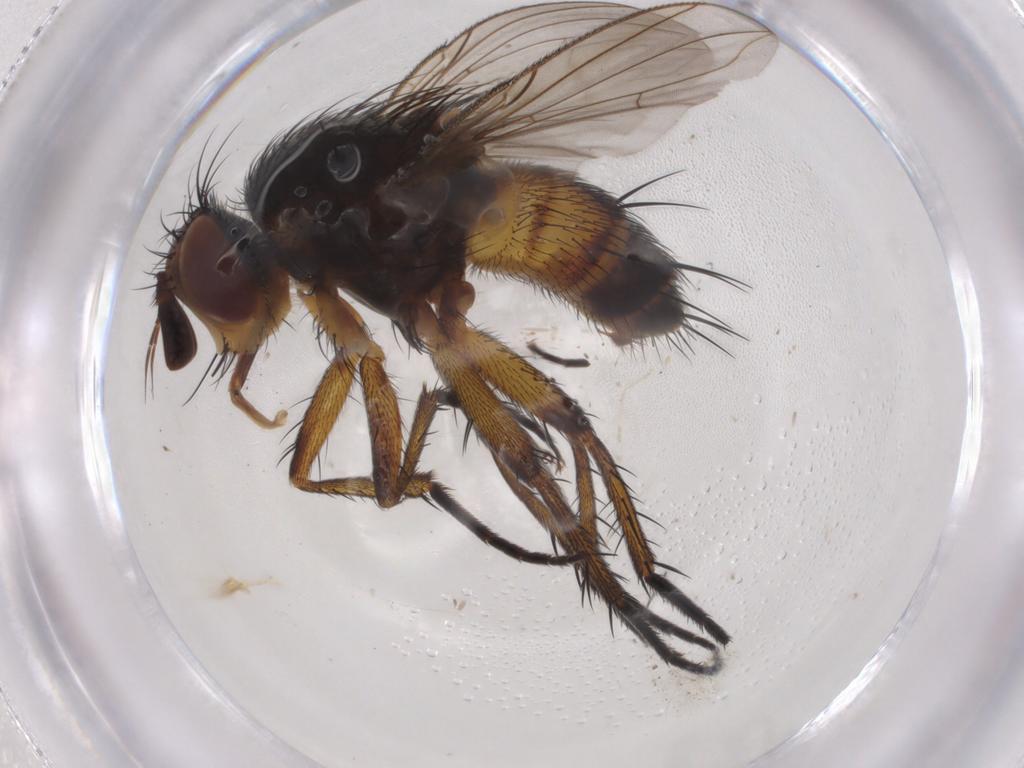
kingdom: Animalia
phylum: Arthropoda
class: Insecta
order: Diptera
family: Tachinidae
